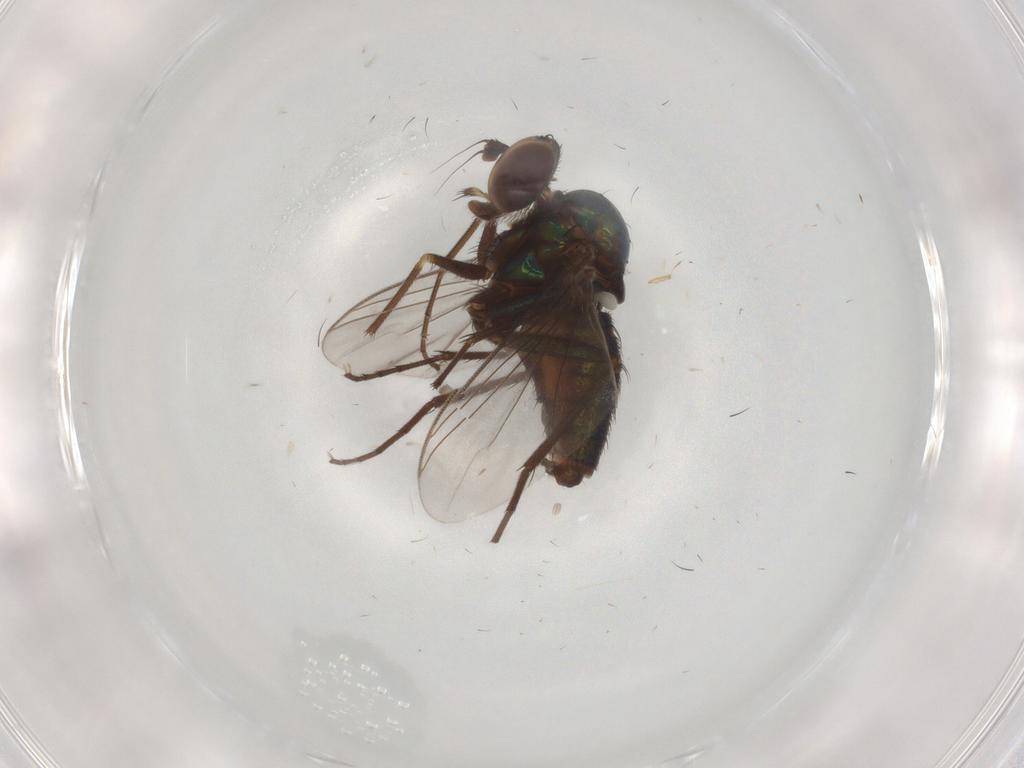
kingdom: Animalia
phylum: Arthropoda
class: Insecta
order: Diptera
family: Dolichopodidae
